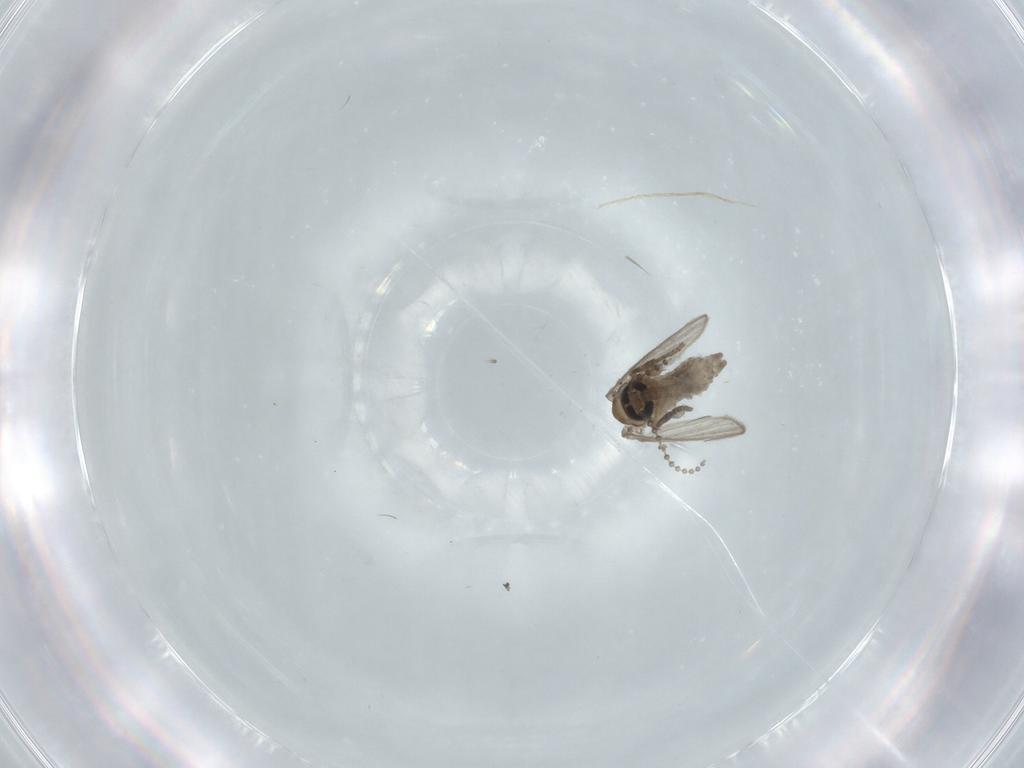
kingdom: Animalia
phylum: Arthropoda
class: Insecta
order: Diptera
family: Psychodidae
